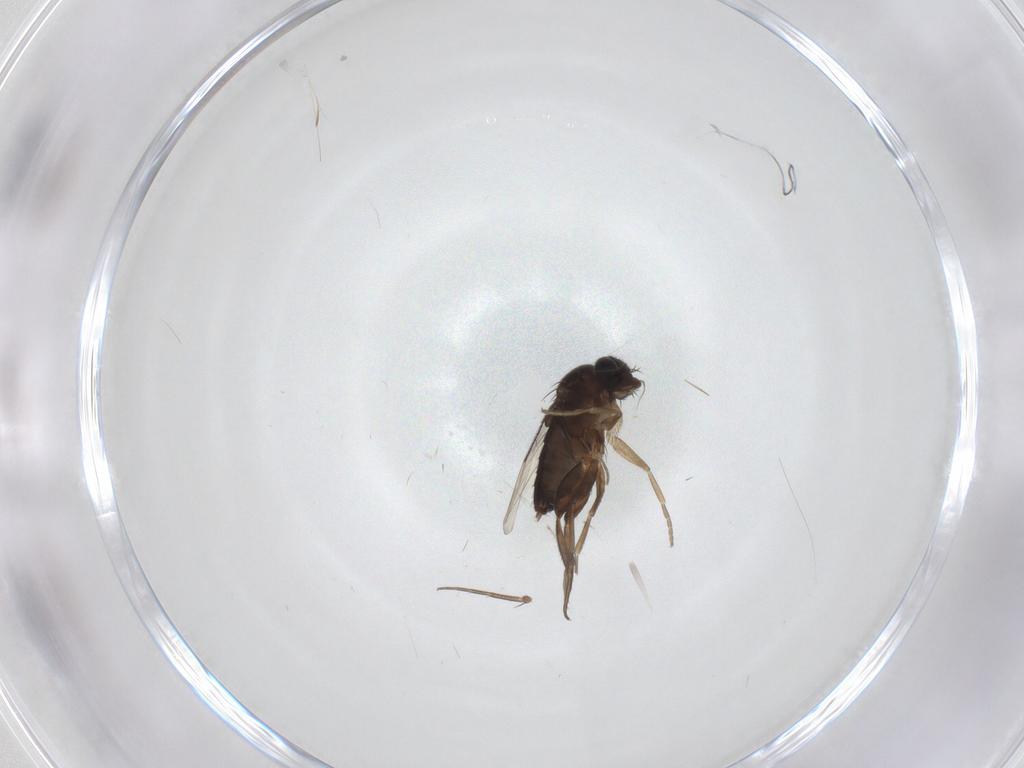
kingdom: Animalia
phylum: Arthropoda
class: Insecta
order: Diptera
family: Phoridae
